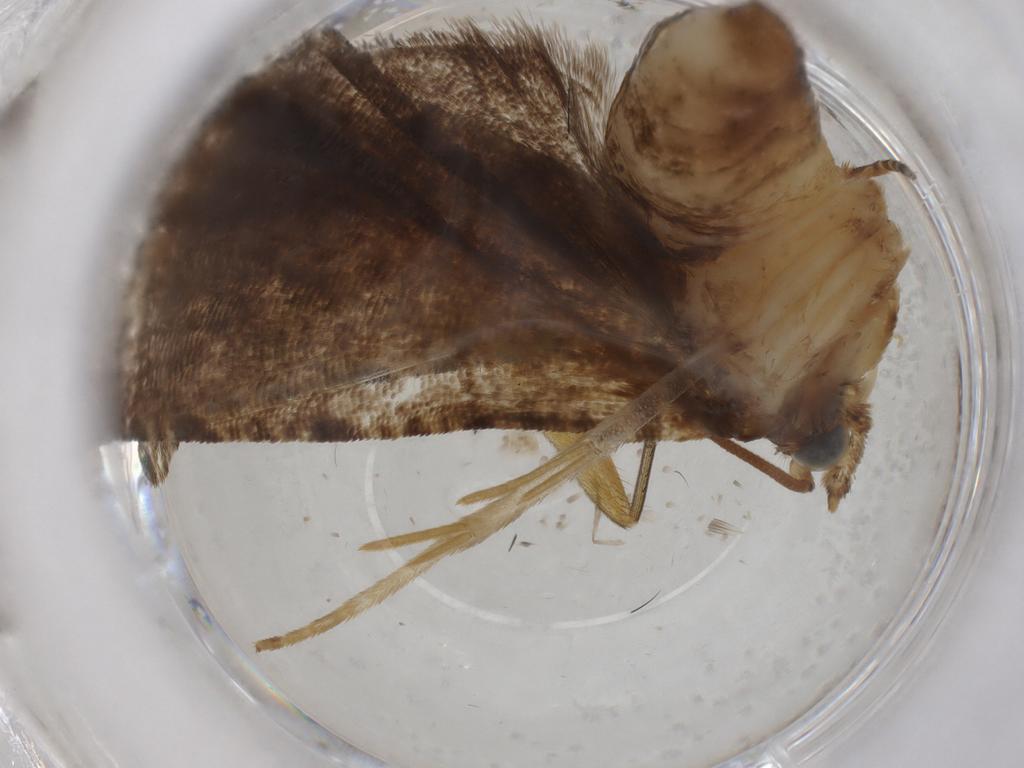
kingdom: Animalia
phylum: Arthropoda
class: Insecta
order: Lepidoptera
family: Tortricidae
